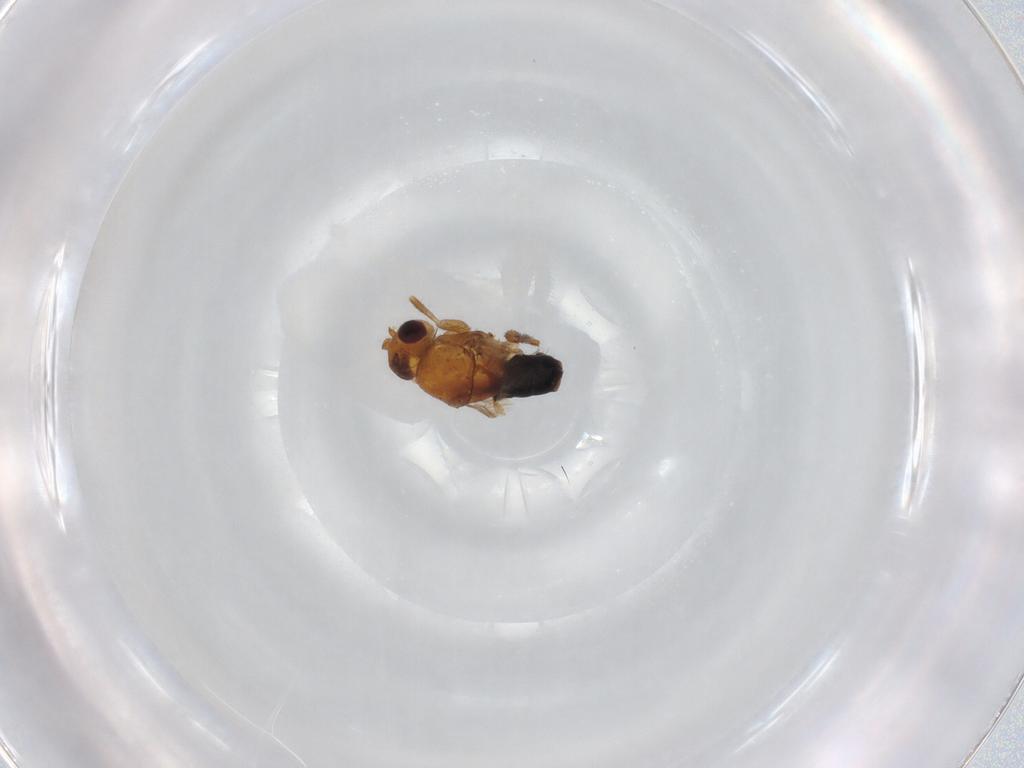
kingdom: Animalia
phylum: Arthropoda
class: Insecta
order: Diptera
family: Sphaeroceridae
